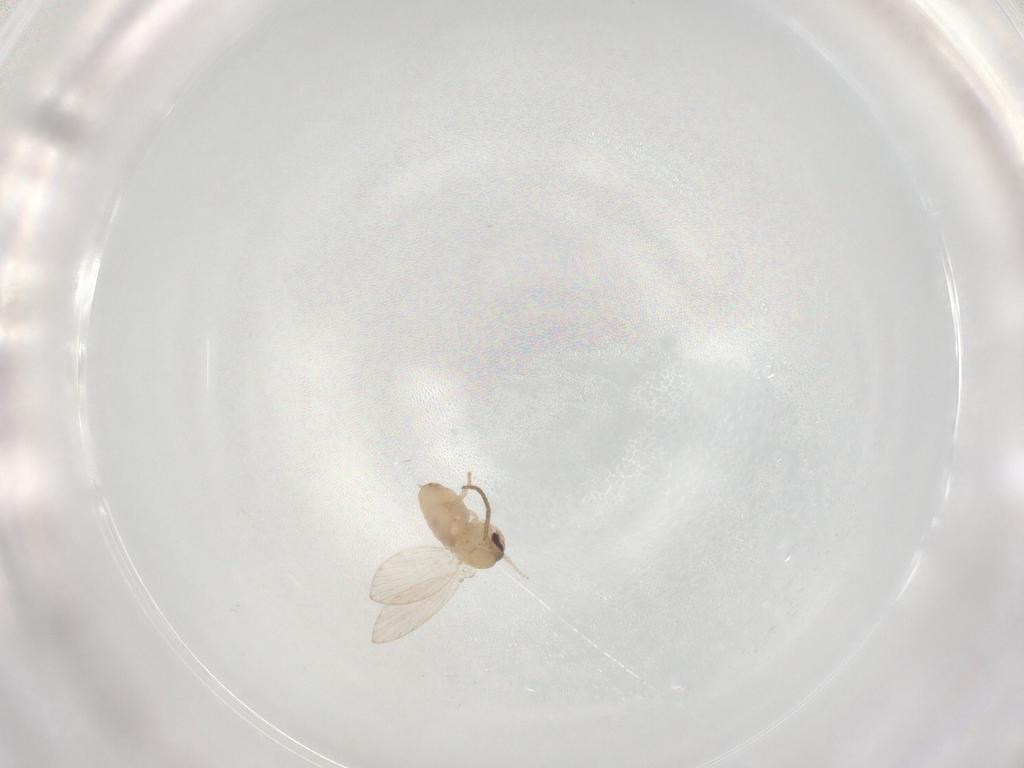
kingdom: Animalia
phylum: Arthropoda
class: Insecta
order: Diptera
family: Psychodidae
